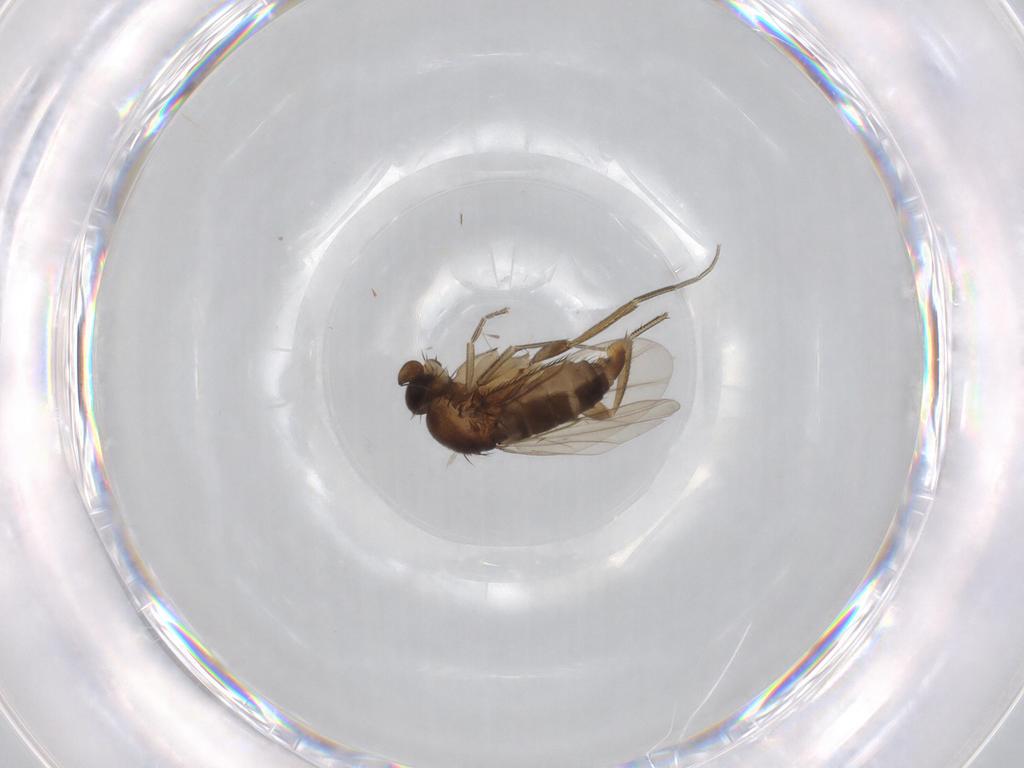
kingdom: Animalia
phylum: Arthropoda
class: Insecta
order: Diptera
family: Phoridae
